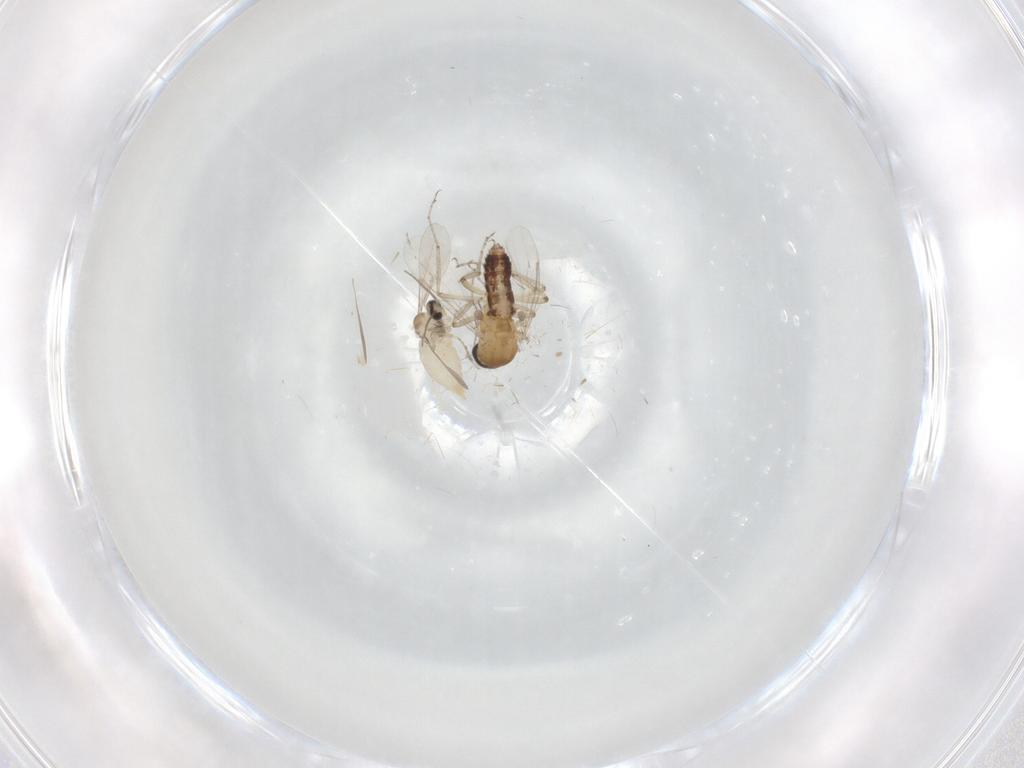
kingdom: Animalia
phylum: Arthropoda
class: Insecta
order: Diptera
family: Ceratopogonidae
